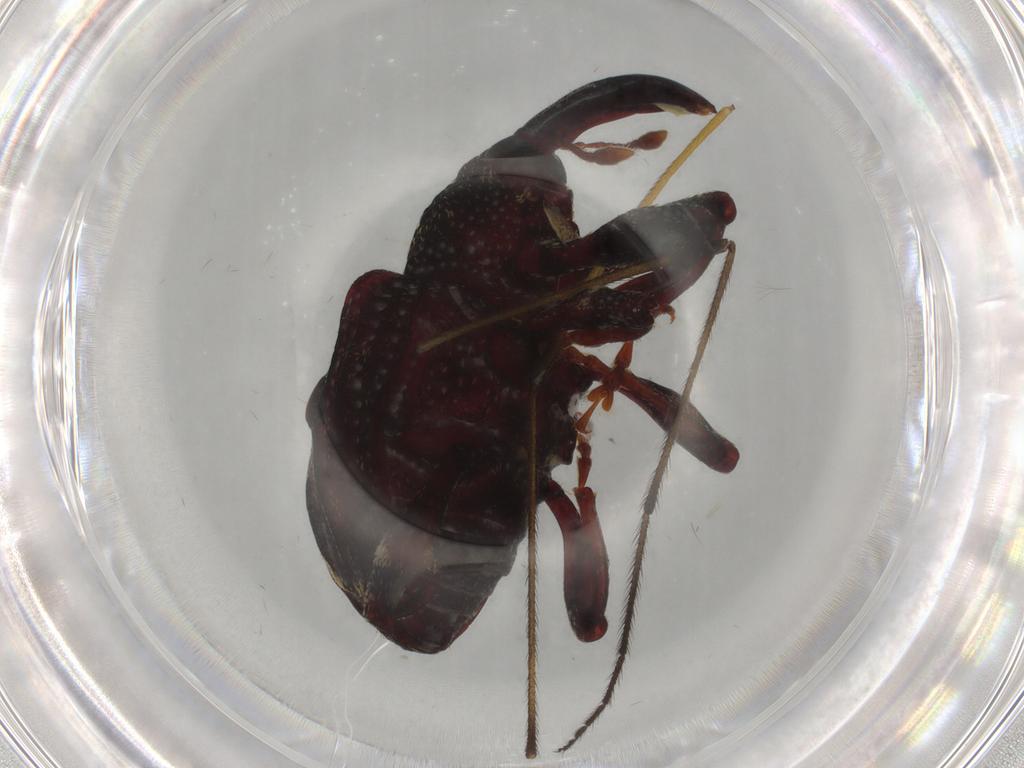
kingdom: Animalia
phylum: Arthropoda
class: Insecta
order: Coleoptera
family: Curculionidae
